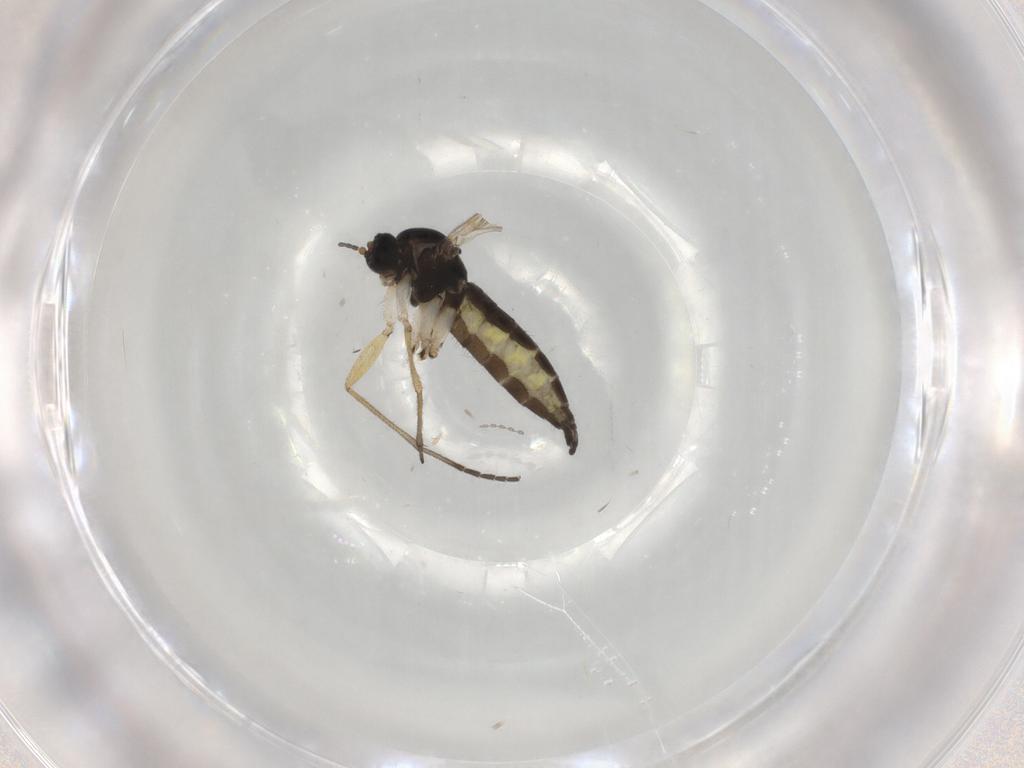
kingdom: Animalia
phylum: Arthropoda
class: Insecta
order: Diptera
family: Sciaridae
